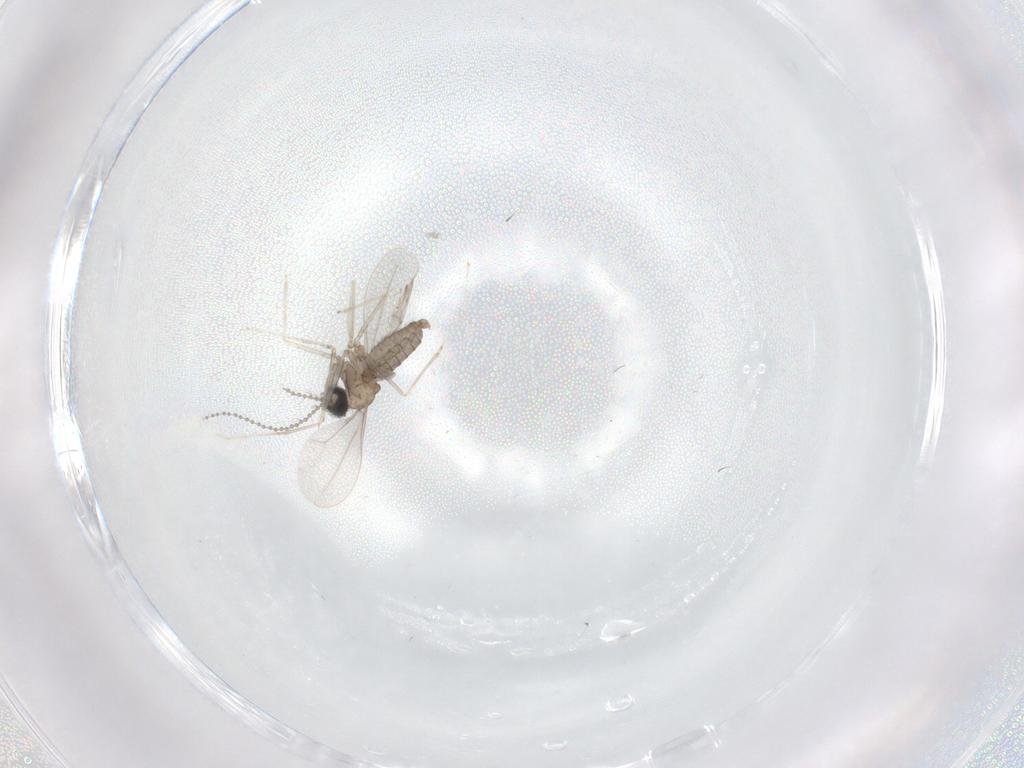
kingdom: Animalia
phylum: Arthropoda
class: Insecta
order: Diptera
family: Cecidomyiidae
